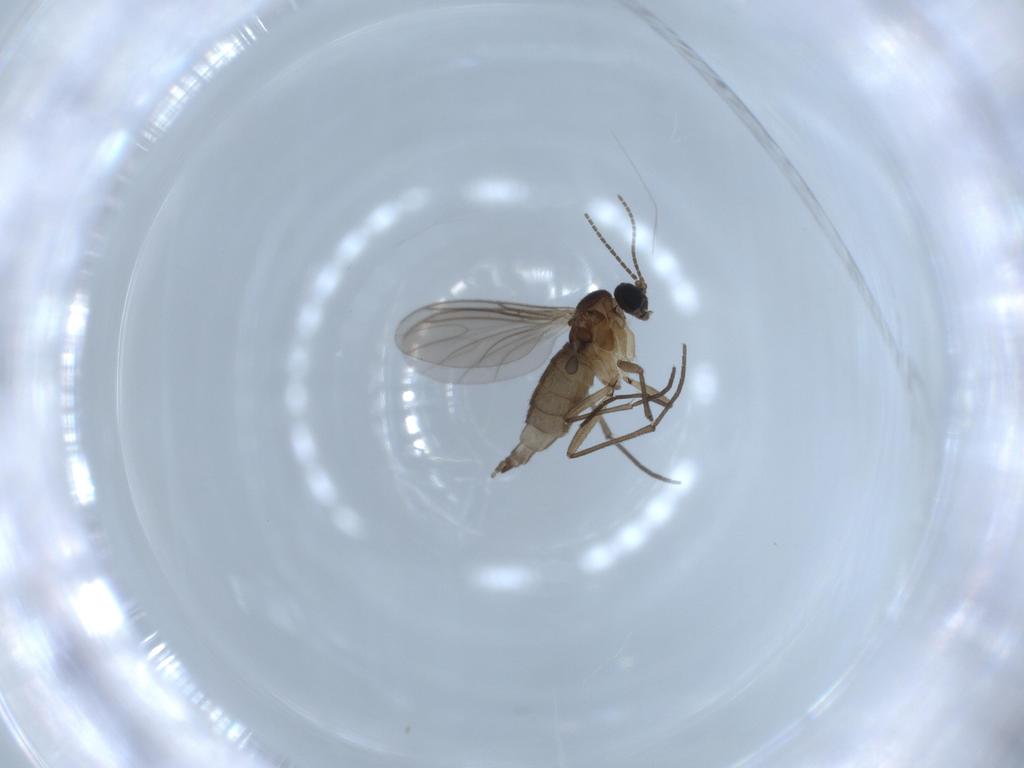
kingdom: Animalia
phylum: Arthropoda
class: Insecta
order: Diptera
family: Sciaridae
